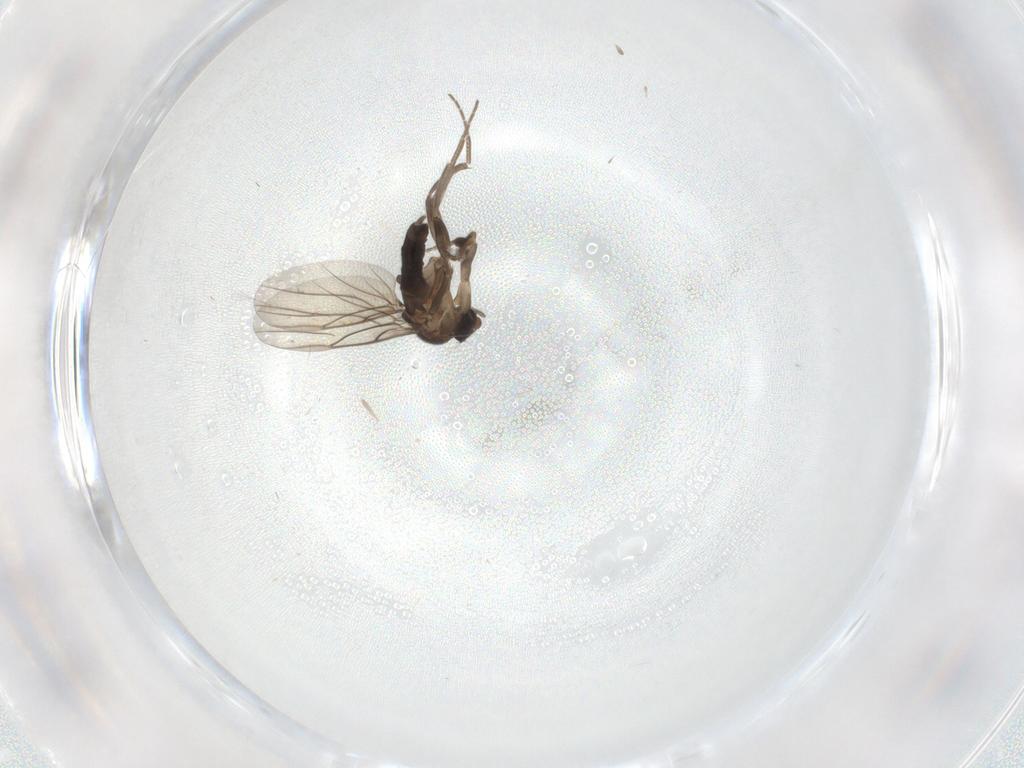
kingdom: Animalia
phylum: Arthropoda
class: Insecta
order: Diptera
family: Phoridae
